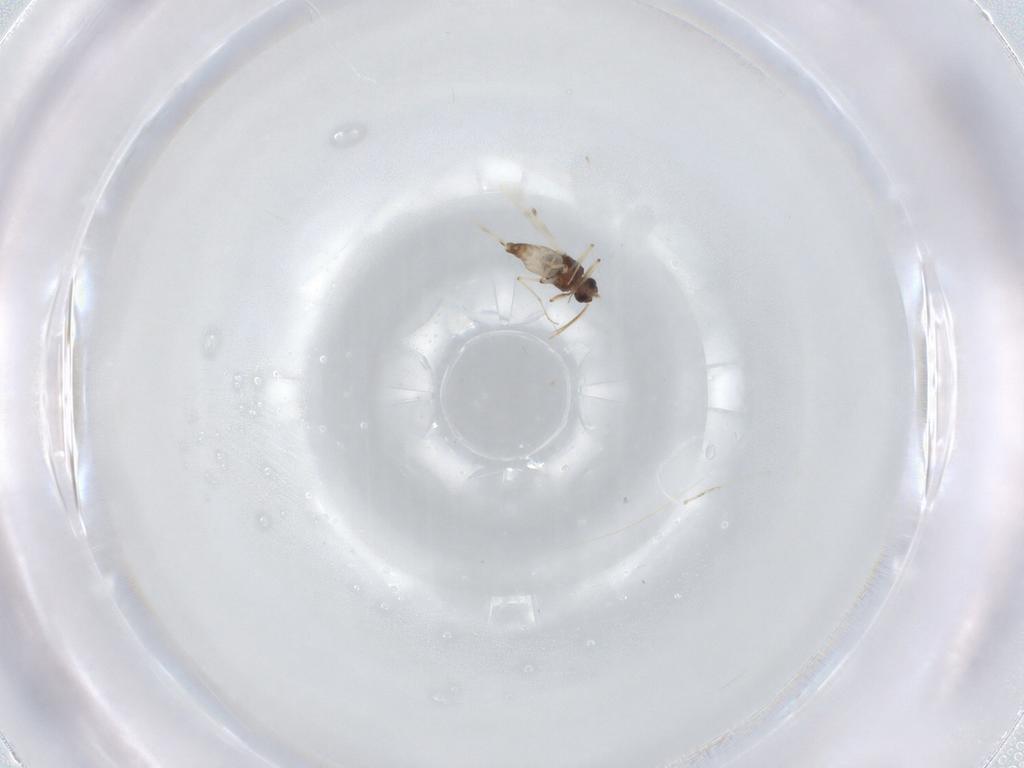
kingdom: Animalia
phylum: Arthropoda
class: Insecta
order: Diptera
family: Cecidomyiidae
